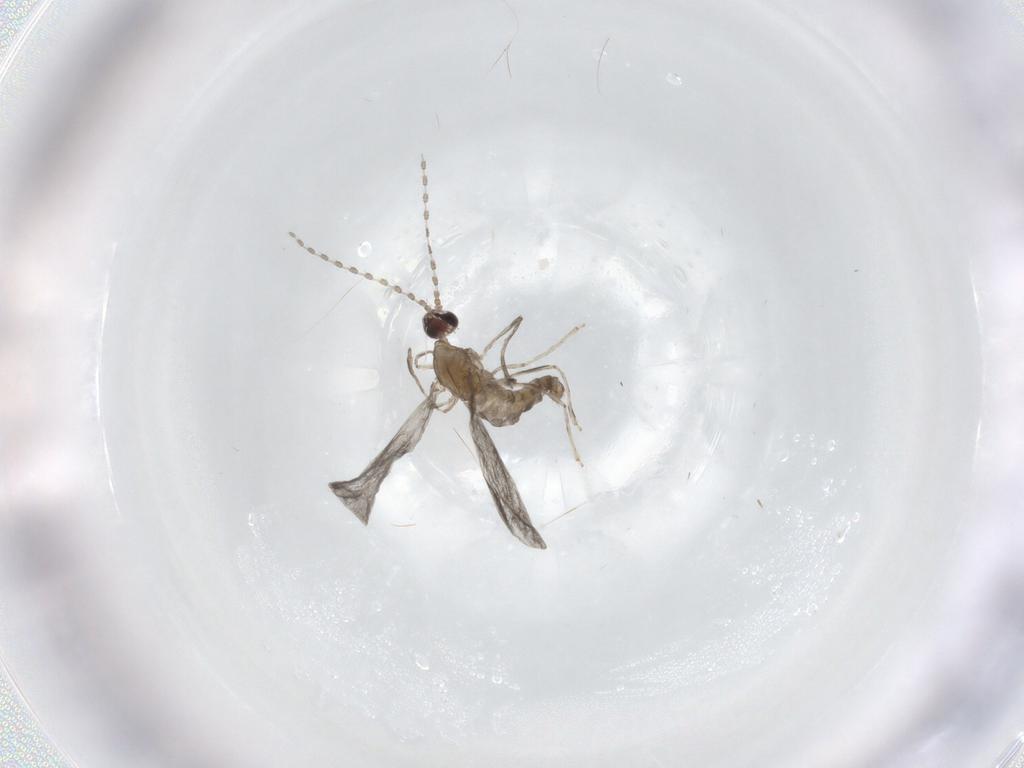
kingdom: Animalia
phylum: Arthropoda
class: Insecta
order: Diptera
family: Cecidomyiidae
